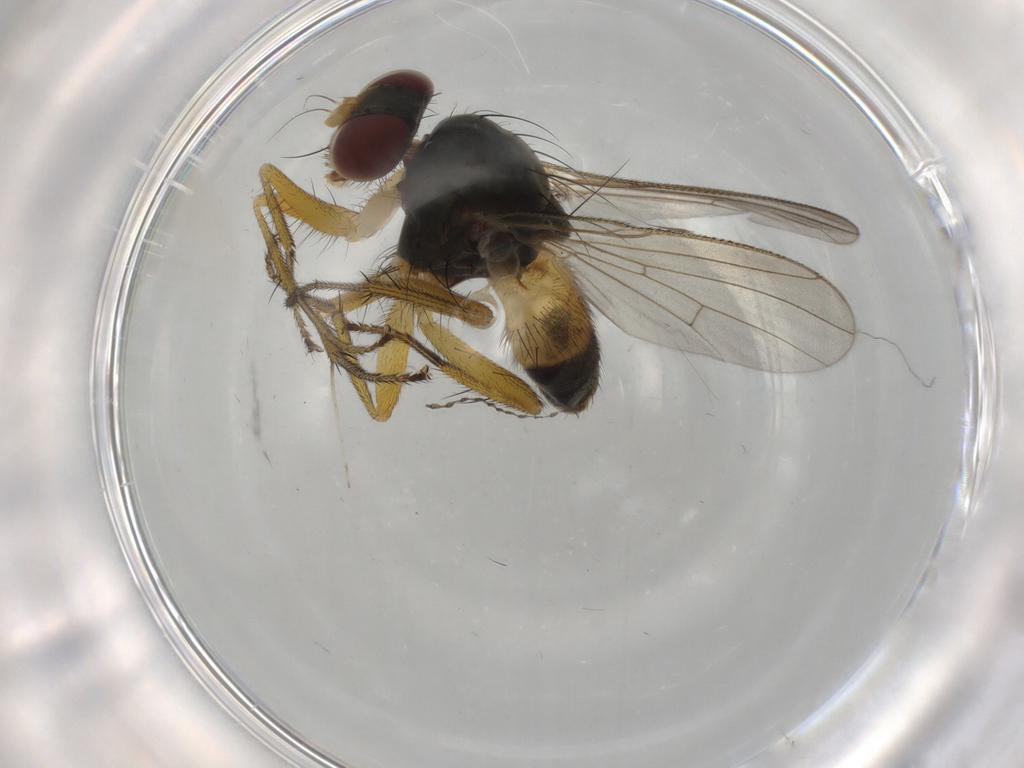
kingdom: Animalia
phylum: Arthropoda
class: Insecta
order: Diptera
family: Muscidae
